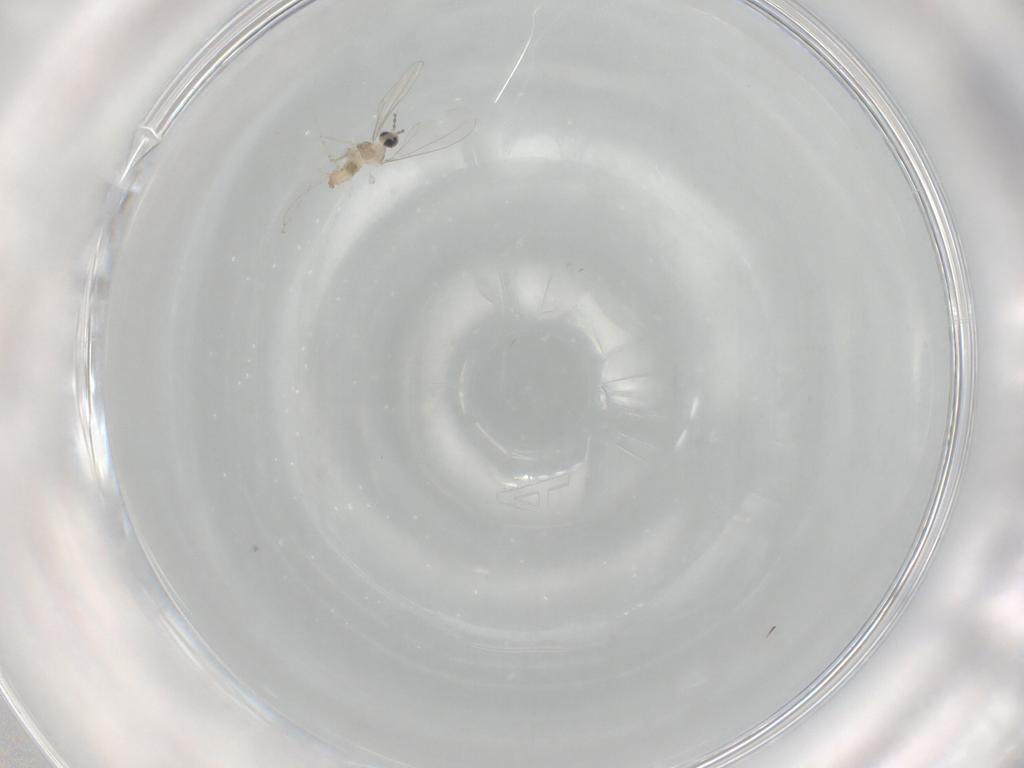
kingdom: Animalia
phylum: Arthropoda
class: Insecta
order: Diptera
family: Cecidomyiidae
